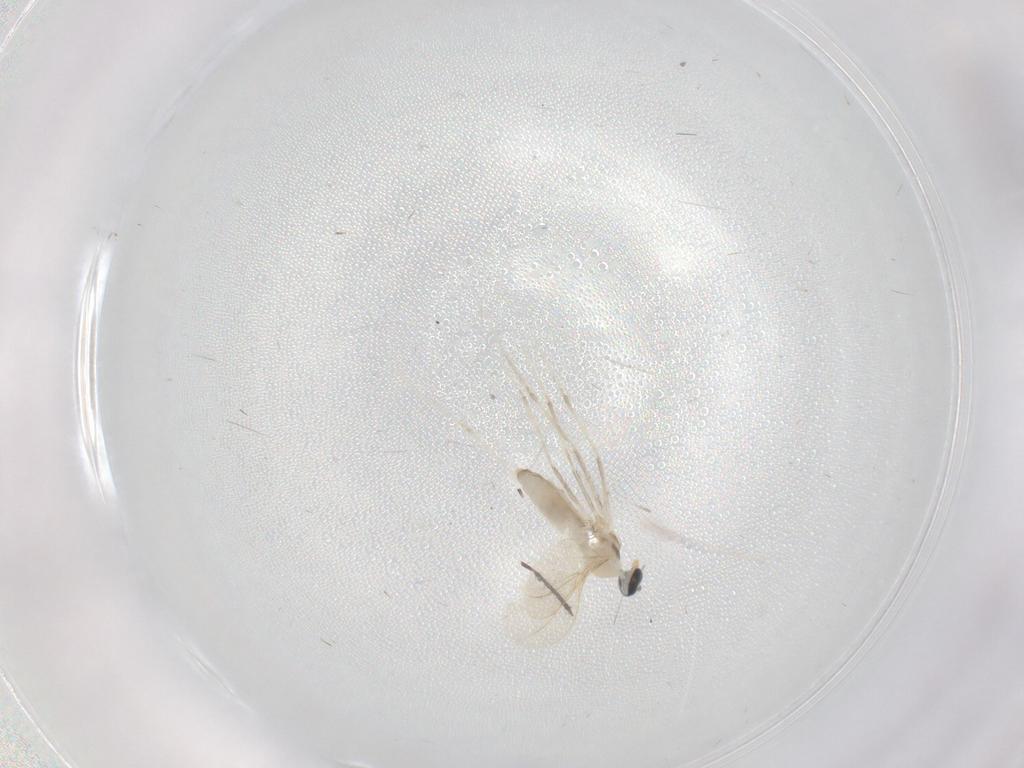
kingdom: Animalia
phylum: Arthropoda
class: Insecta
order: Diptera
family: Cecidomyiidae
